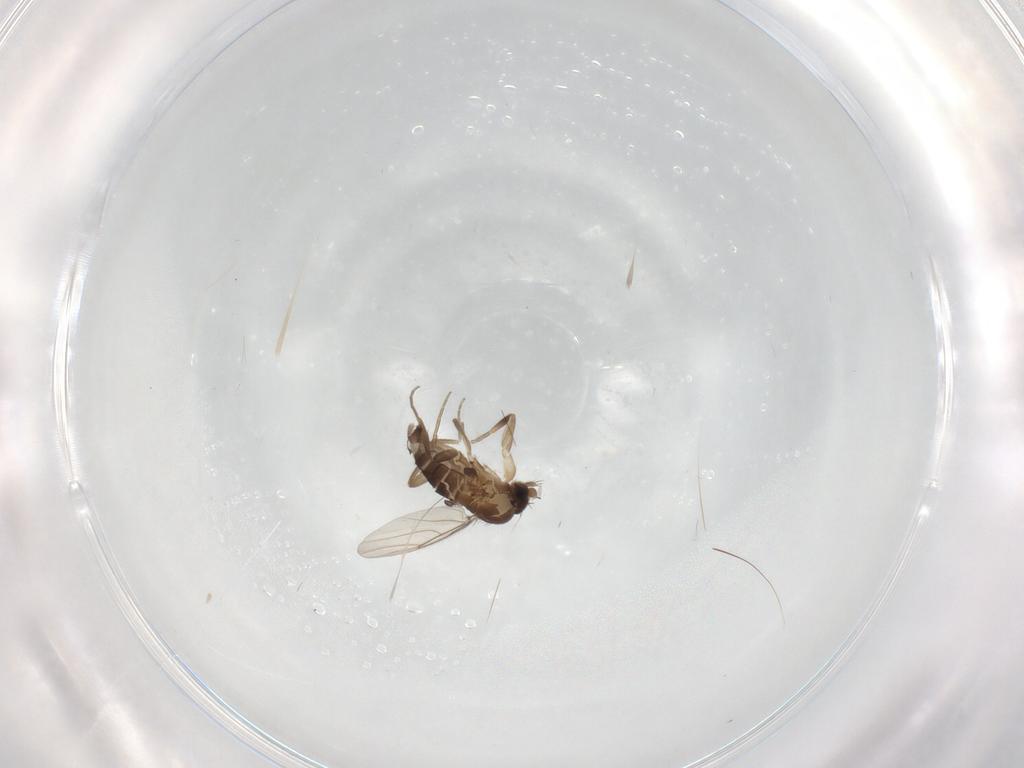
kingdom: Animalia
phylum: Arthropoda
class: Insecta
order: Diptera
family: Phoridae
